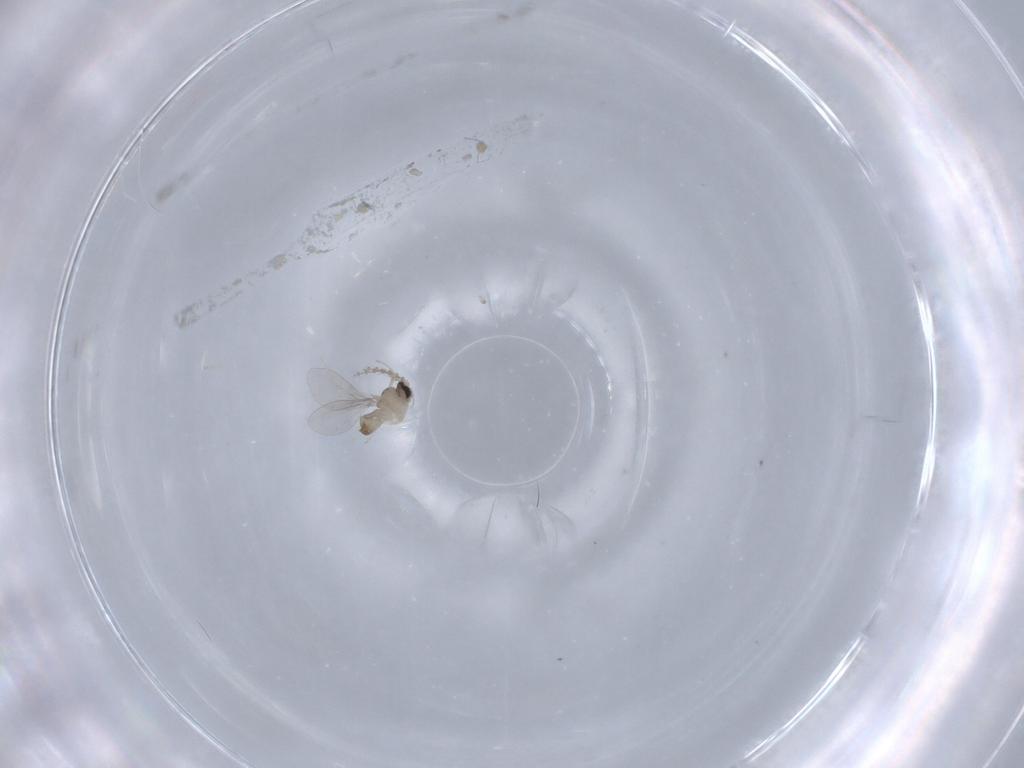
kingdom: Animalia
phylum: Arthropoda
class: Insecta
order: Diptera
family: Cecidomyiidae
